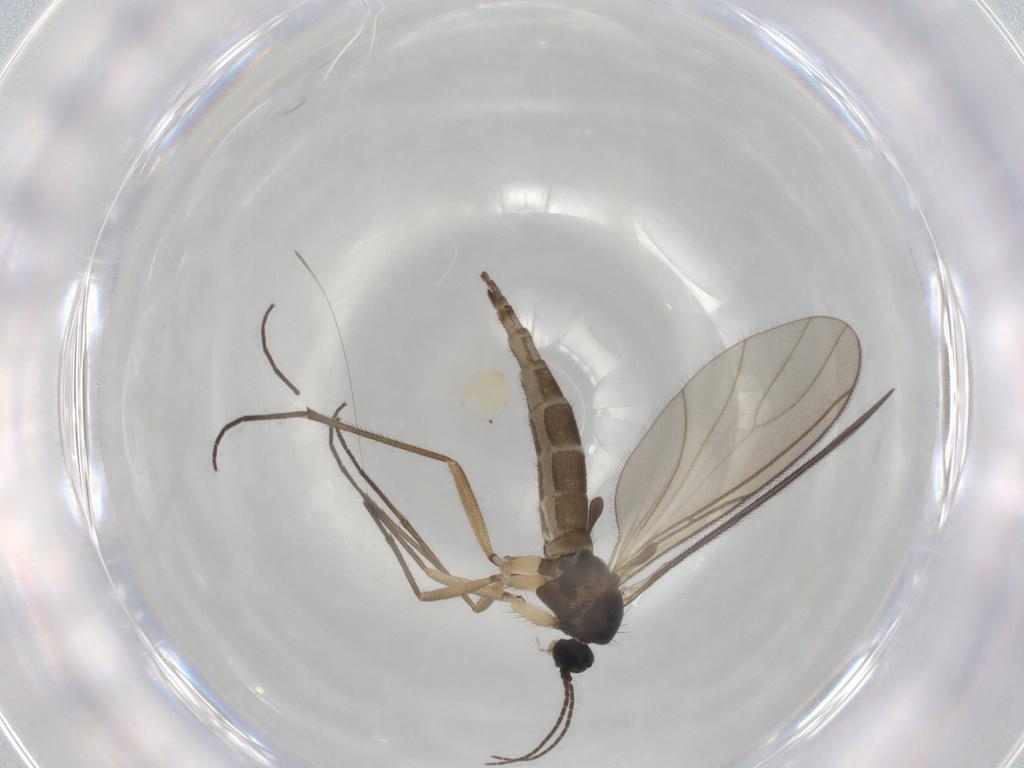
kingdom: Animalia
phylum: Arthropoda
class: Insecta
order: Diptera
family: Sciaridae
